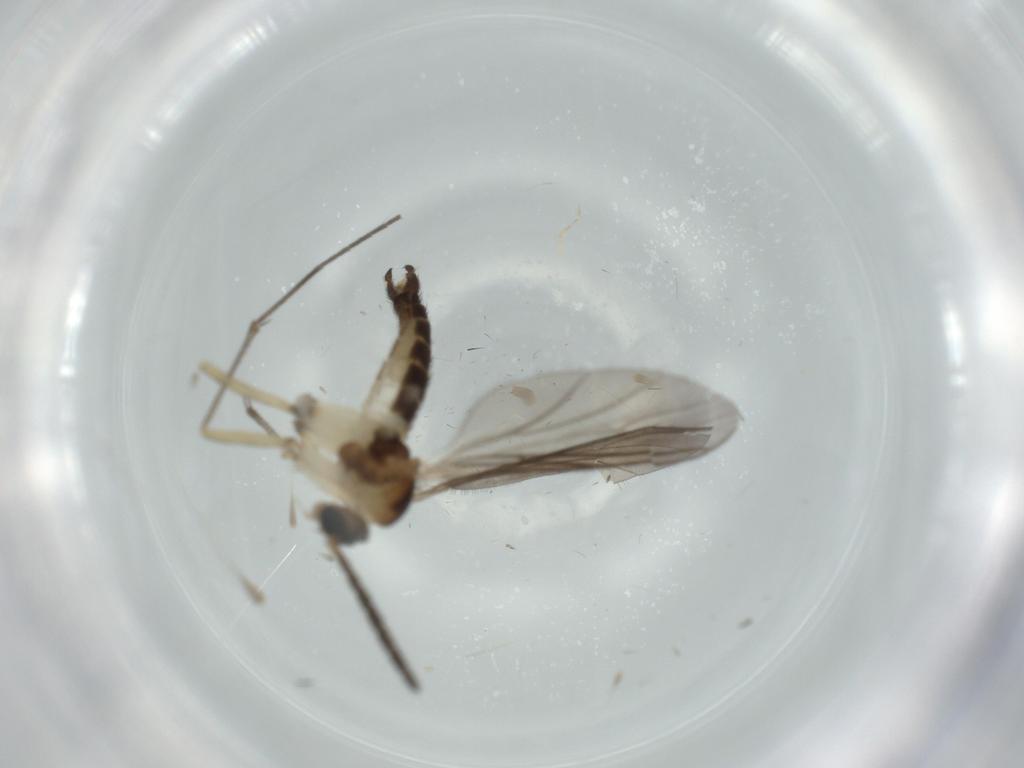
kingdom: Animalia
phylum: Arthropoda
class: Insecta
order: Diptera
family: Sciaridae
